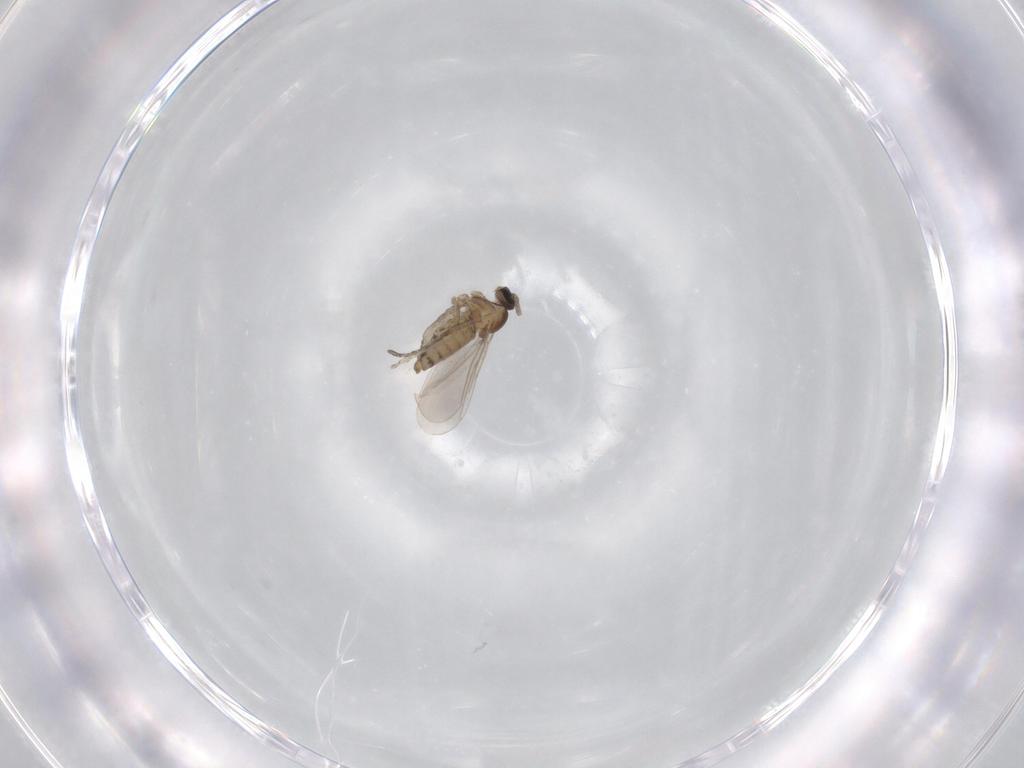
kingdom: Animalia
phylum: Arthropoda
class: Insecta
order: Diptera
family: Cecidomyiidae
